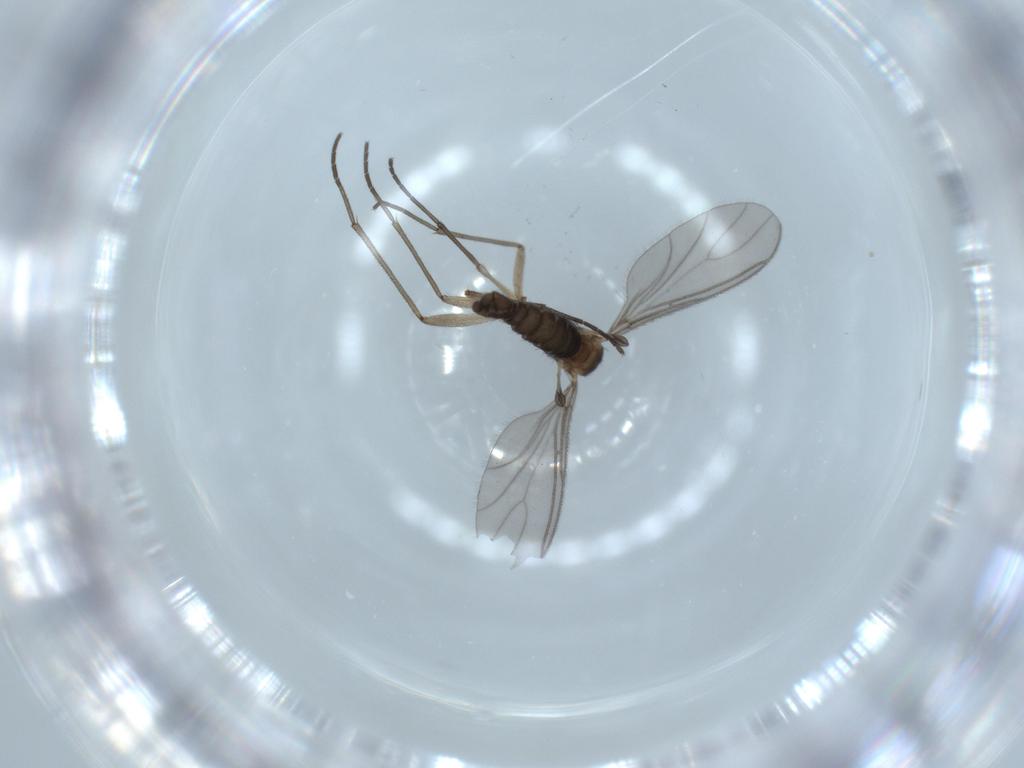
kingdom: Animalia
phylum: Arthropoda
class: Insecta
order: Diptera
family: Sciaridae
